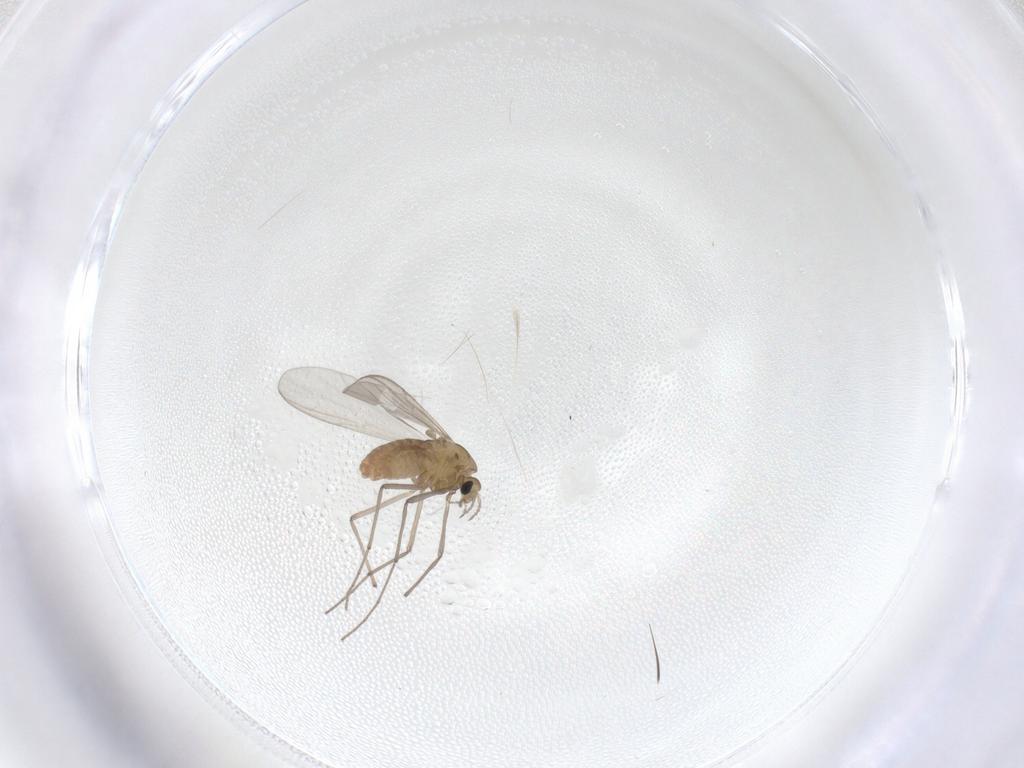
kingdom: Animalia
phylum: Arthropoda
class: Insecta
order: Diptera
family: Chironomidae
